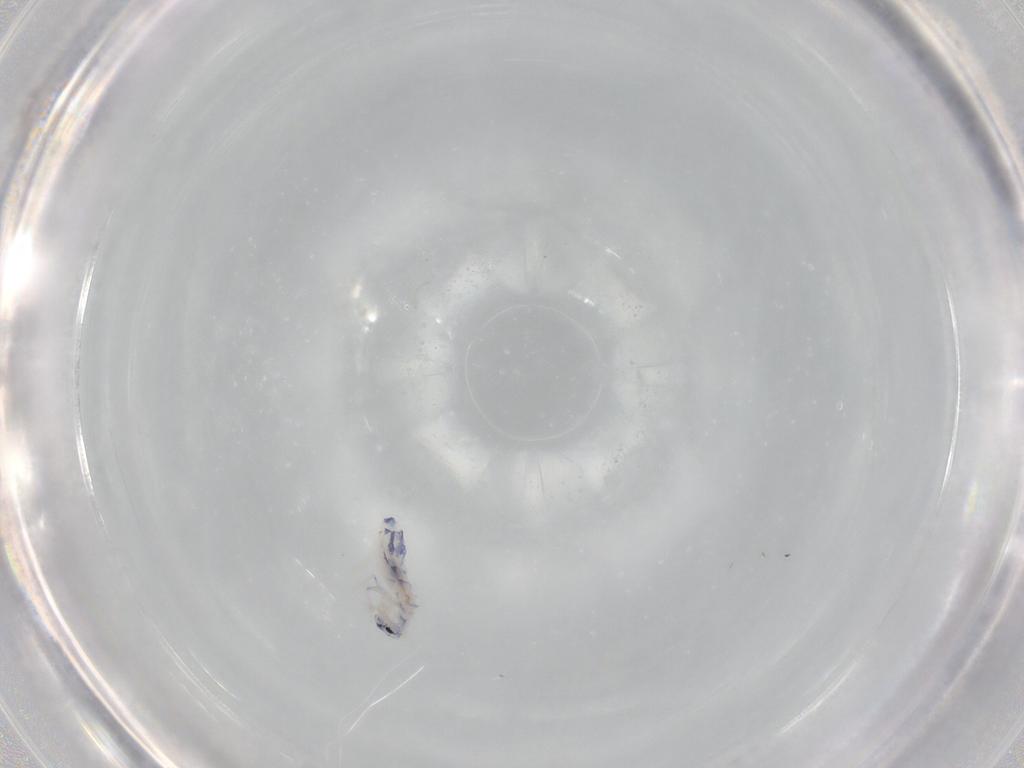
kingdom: Animalia
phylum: Arthropoda
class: Collembola
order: Entomobryomorpha
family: Entomobryidae
